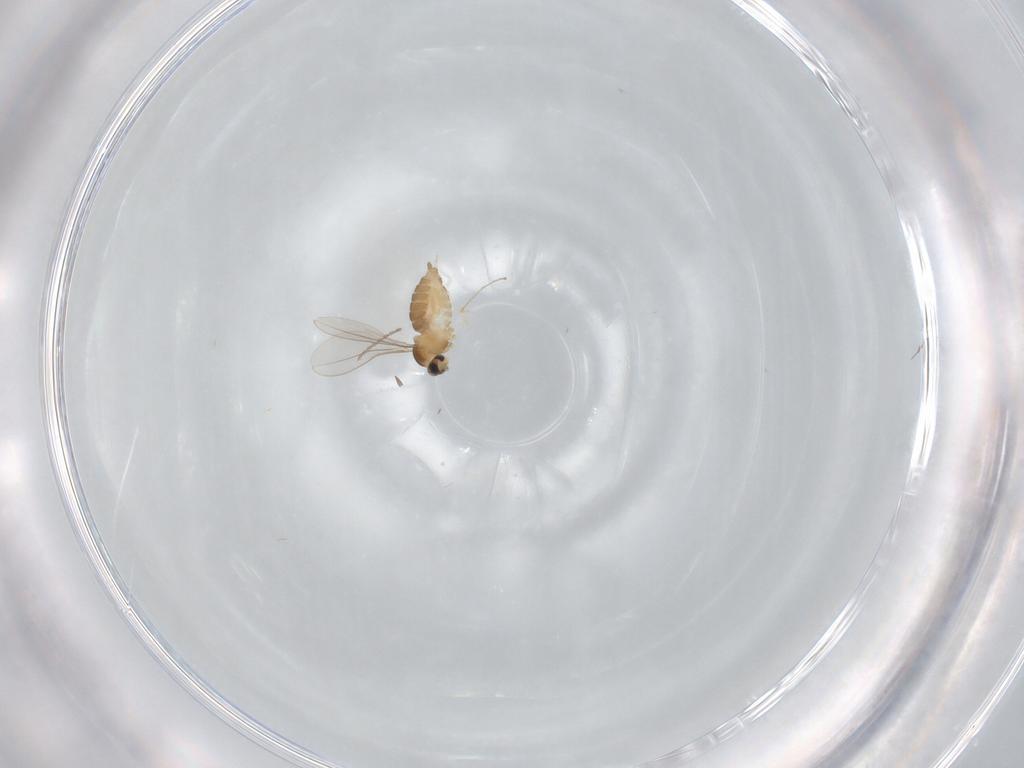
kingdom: Animalia
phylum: Arthropoda
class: Insecta
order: Diptera
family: Cecidomyiidae
